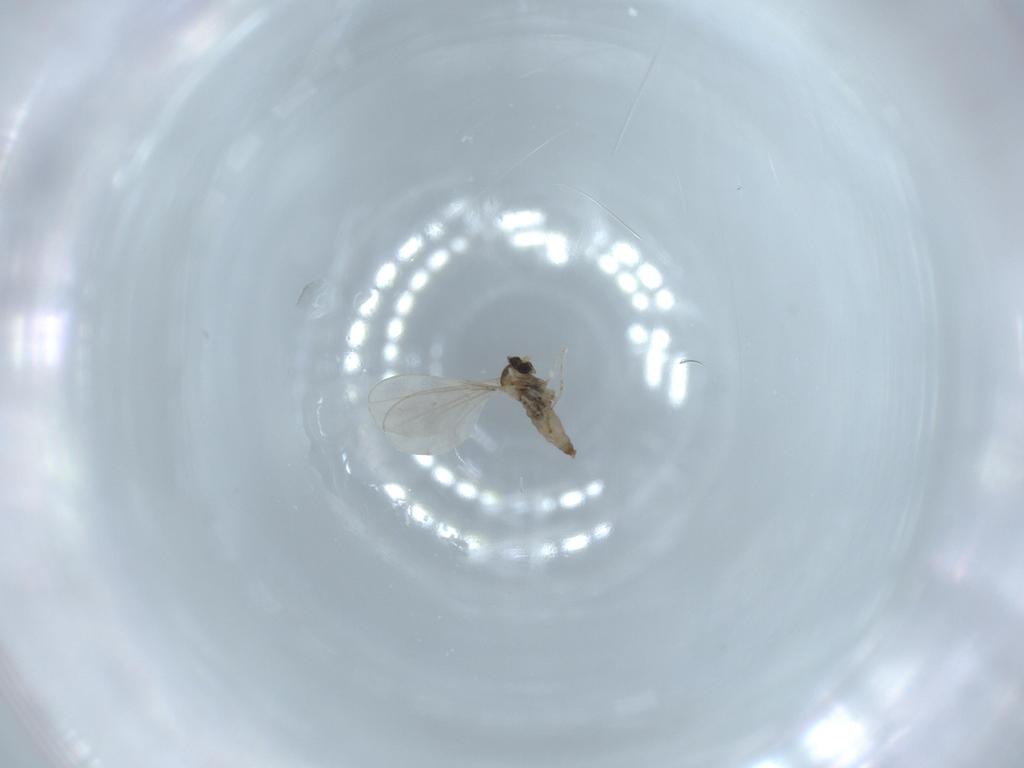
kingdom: Animalia
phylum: Arthropoda
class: Insecta
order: Diptera
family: Cecidomyiidae
